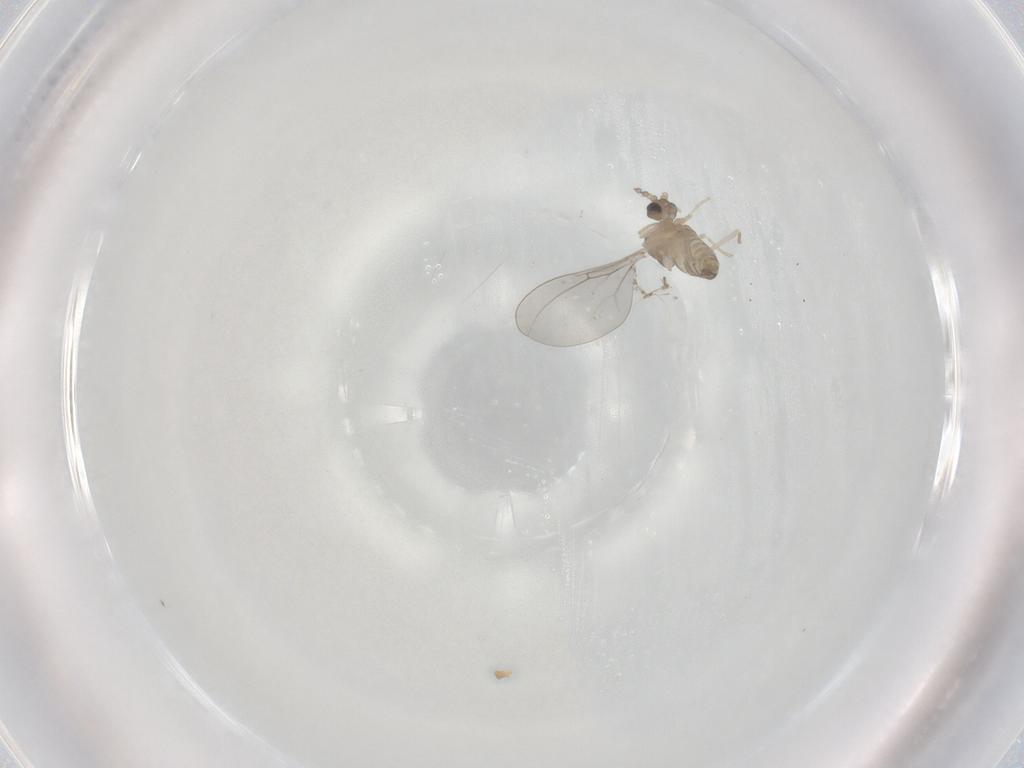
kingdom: Animalia
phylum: Arthropoda
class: Insecta
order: Diptera
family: Cecidomyiidae
